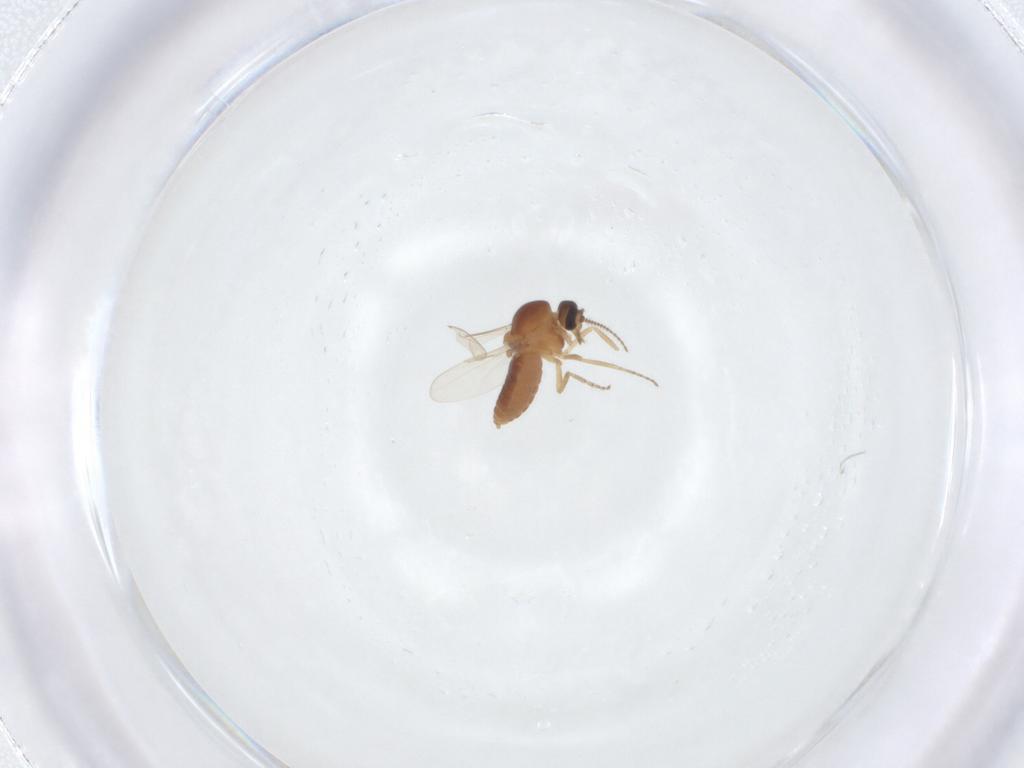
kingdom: Animalia
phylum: Arthropoda
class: Insecta
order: Diptera
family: Ceratopogonidae
